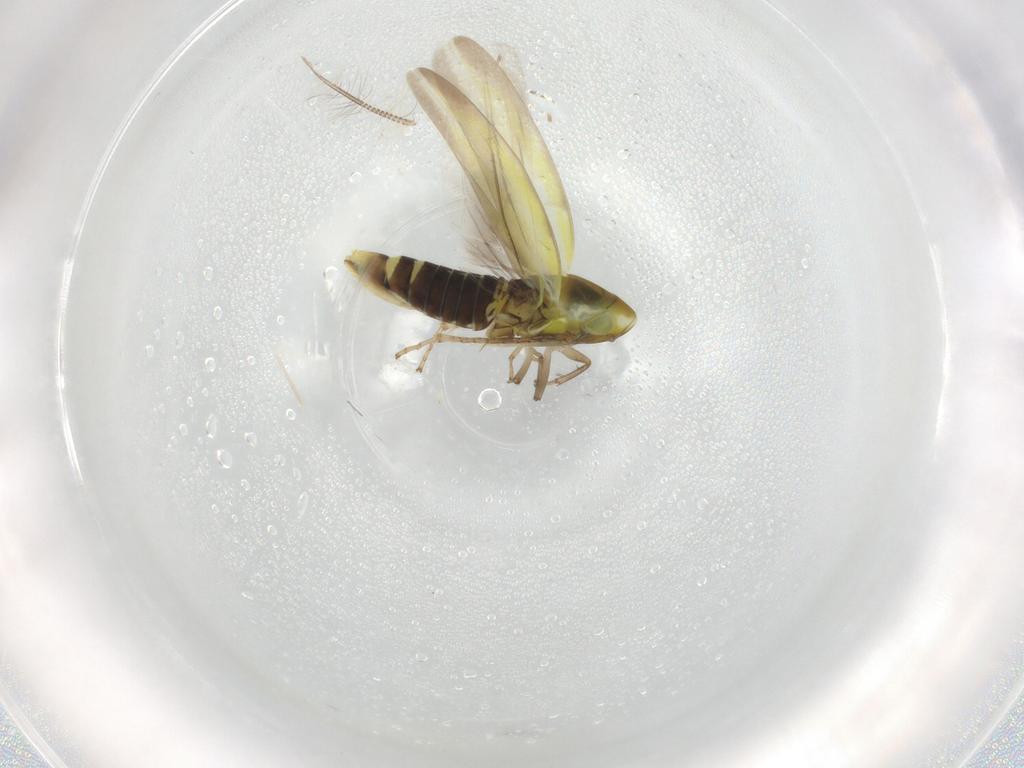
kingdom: Animalia
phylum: Arthropoda
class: Insecta
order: Hemiptera
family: Cicadellidae
